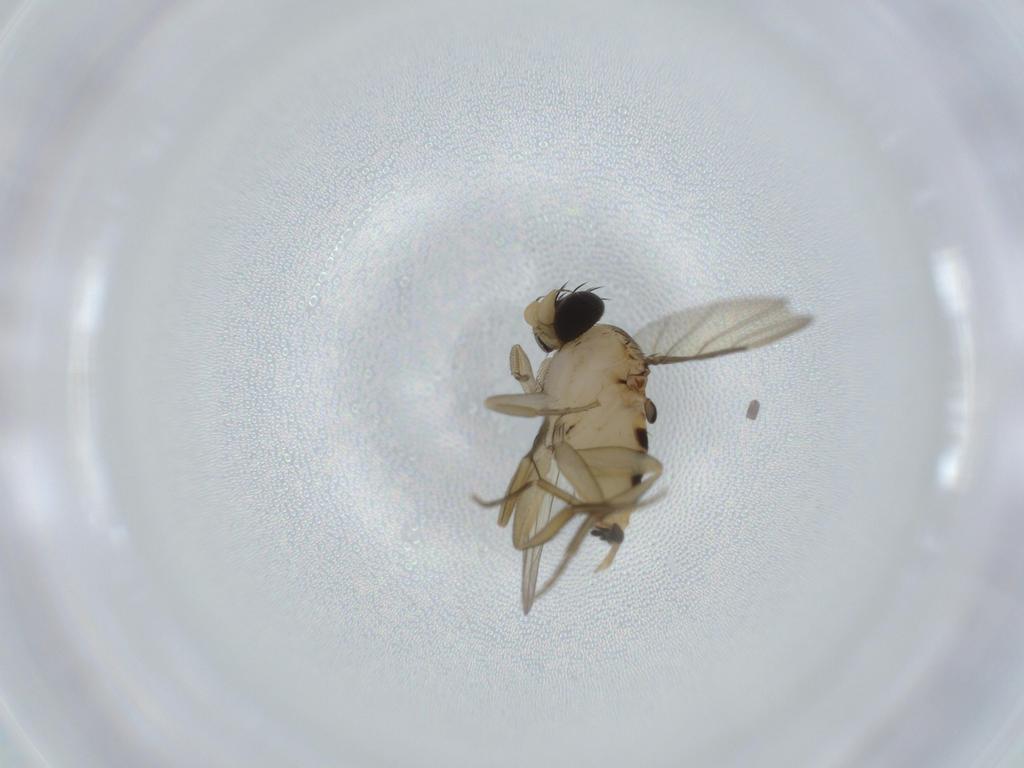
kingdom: Animalia
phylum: Arthropoda
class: Insecta
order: Diptera
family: Phoridae
